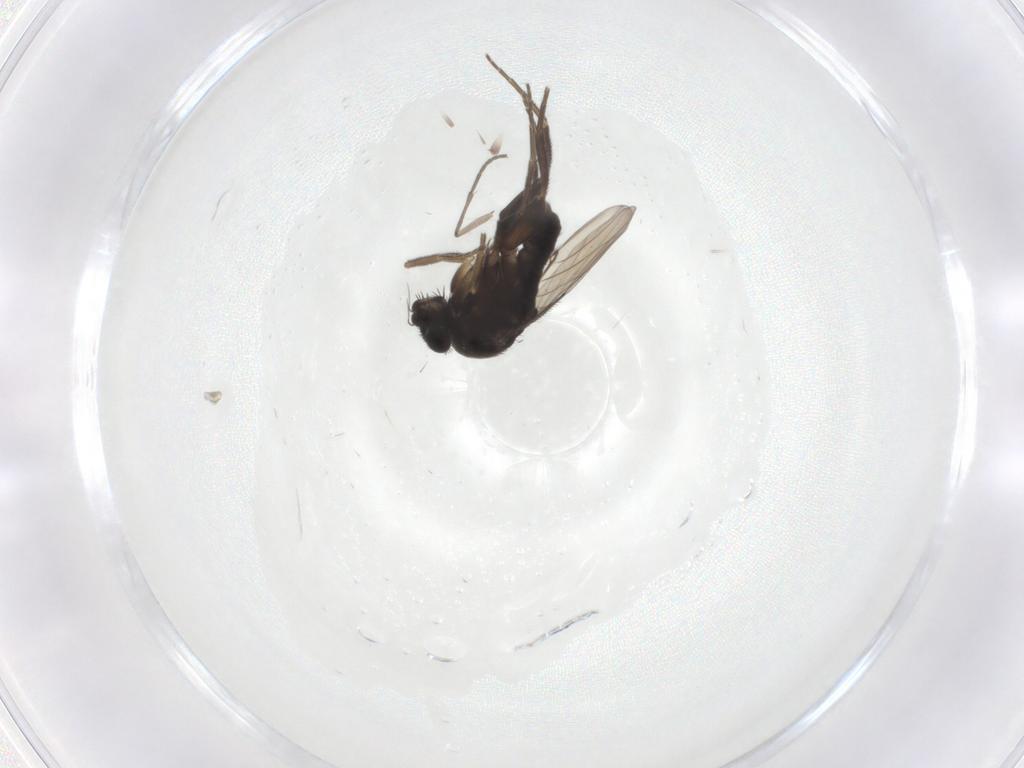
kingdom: Animalia
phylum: Arthropoda
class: Insecta
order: Diptera
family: Phoridae
